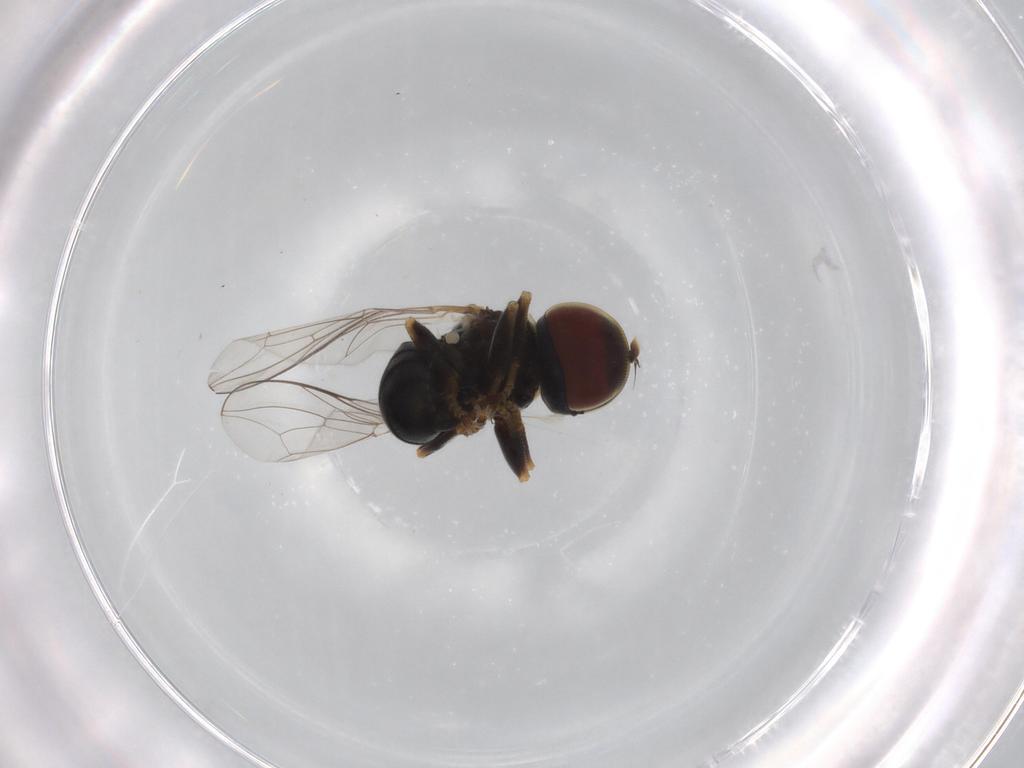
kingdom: Animalia
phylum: Arthropoda
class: Insecta
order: Diptera
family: Pipunculidae
